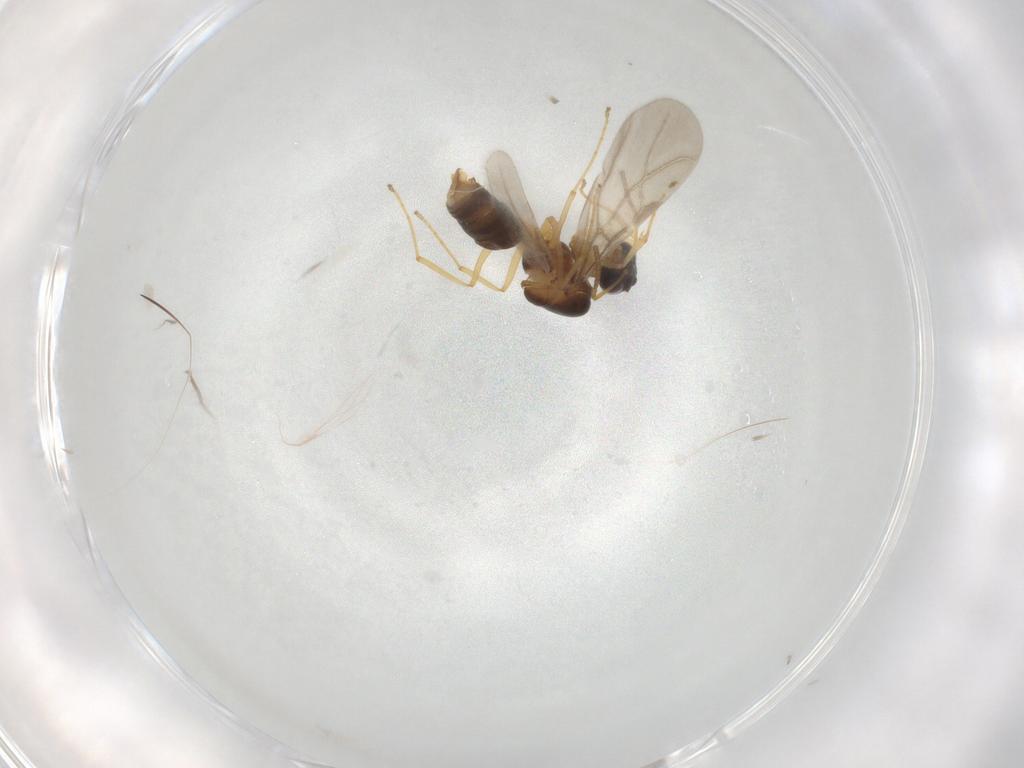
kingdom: Animalia
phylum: Arthropoda
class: Insecta
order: Hymenoptera
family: Formicidae
